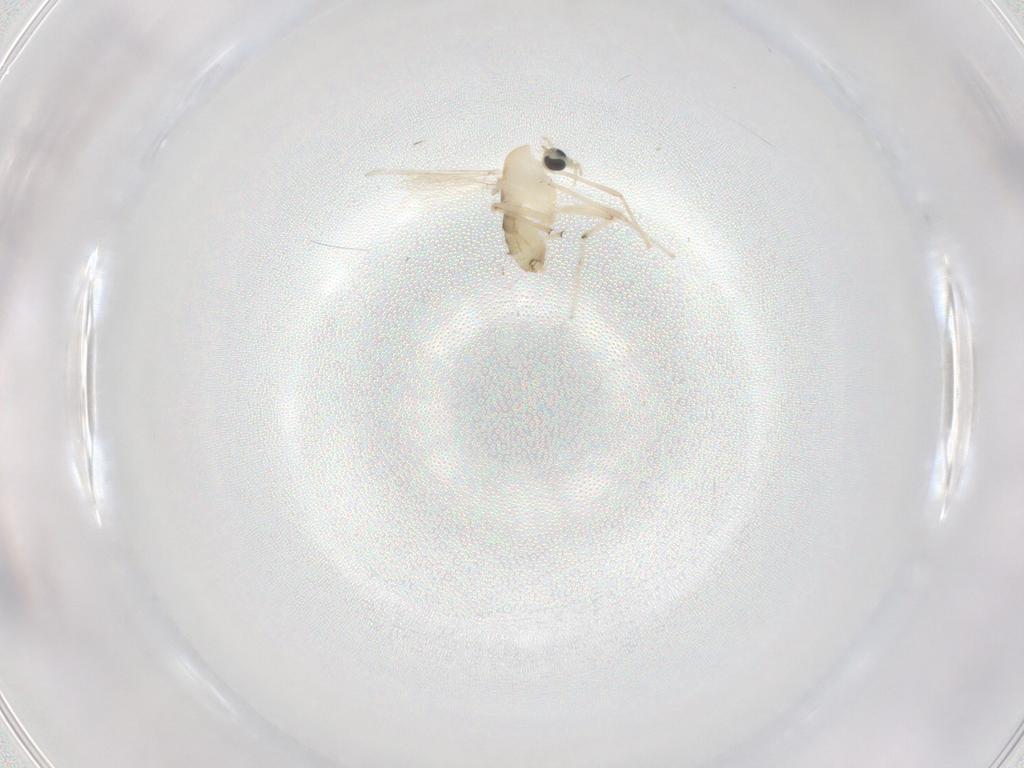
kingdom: Animalia
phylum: Arthropoda
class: Insecta
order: Diptera
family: Chironomidae
